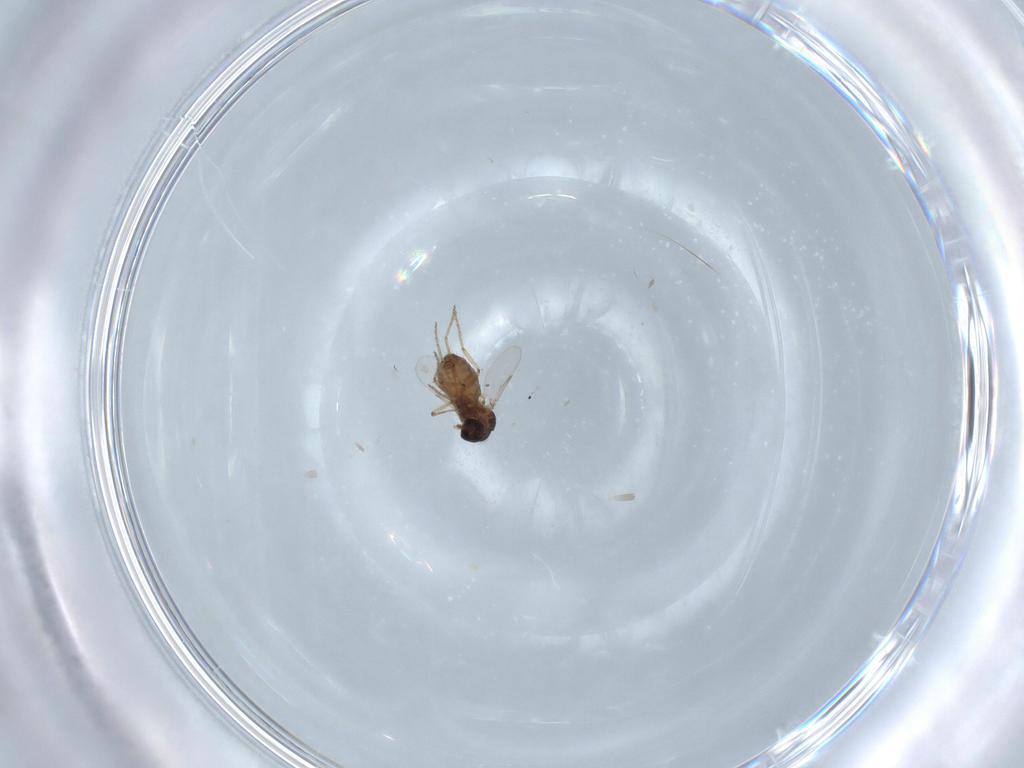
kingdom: Animalia
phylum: Arthropoda
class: Insecta
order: Diptera
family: Ceratopogonidae
